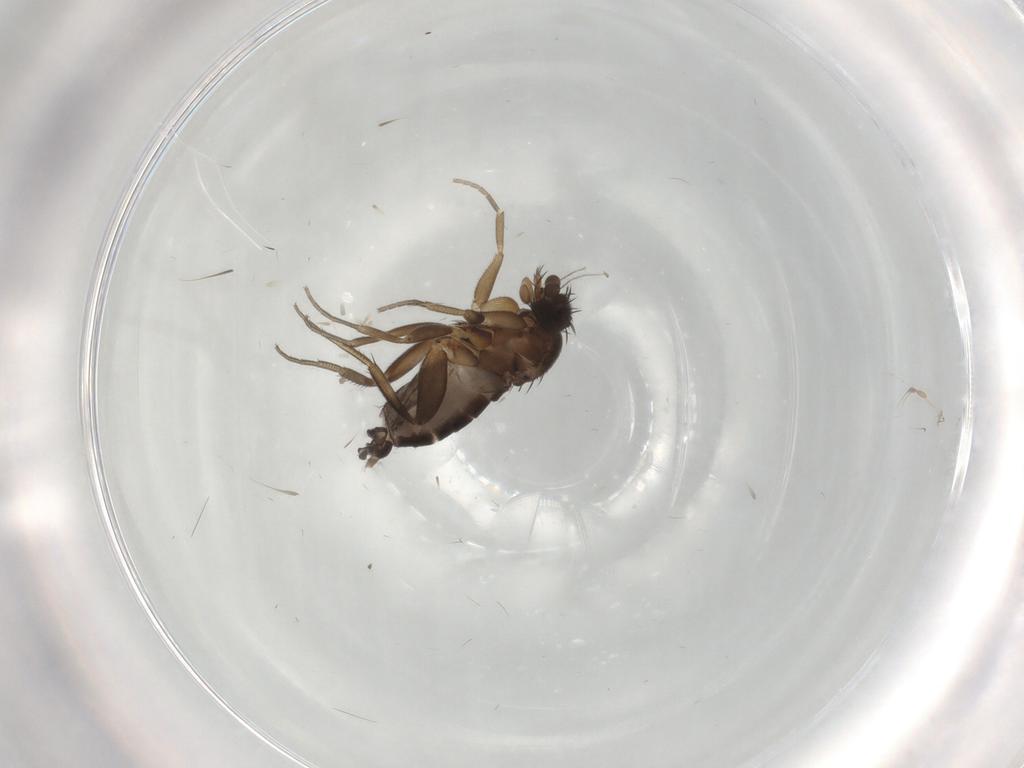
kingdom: Animalia
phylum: Arthropoda
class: Insecta
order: Diptera
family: Phoridae
